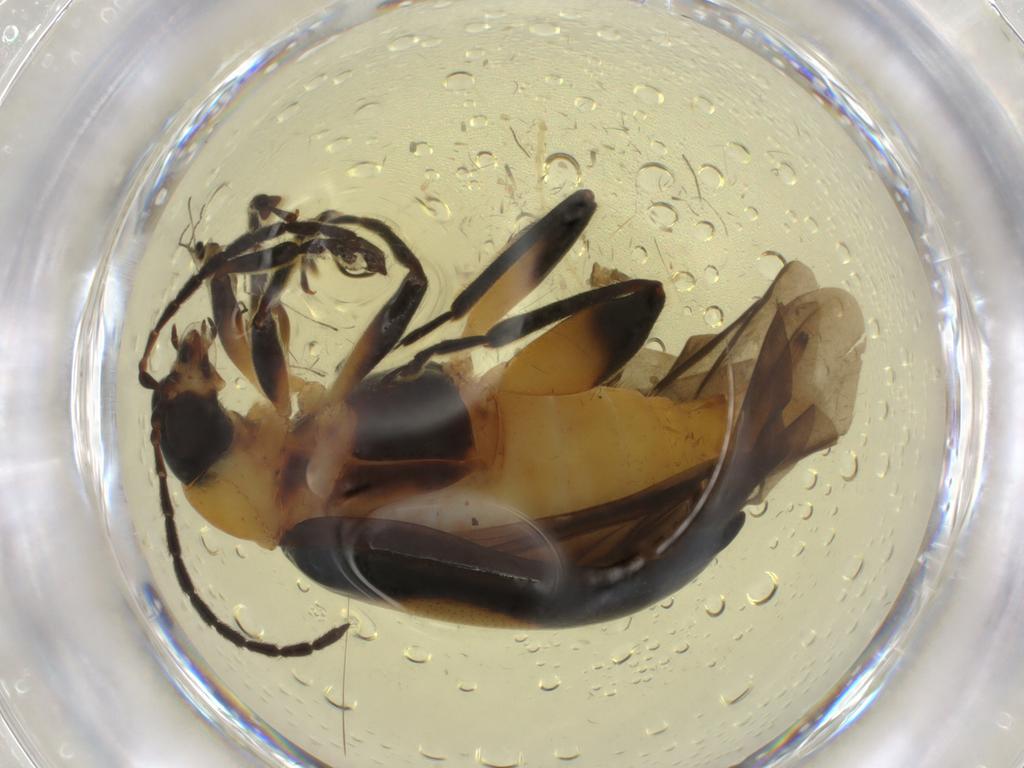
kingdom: Animalia
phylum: Arthropoda
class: Insecta
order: Coleoptera
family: Chrysomelidae
